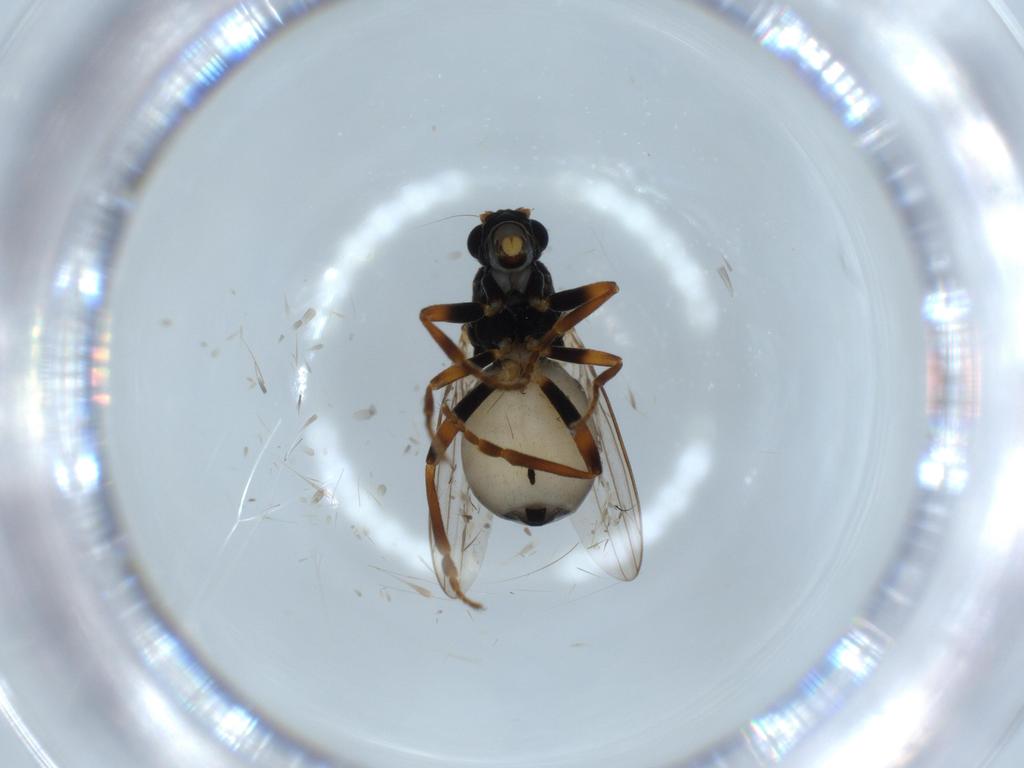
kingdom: Animalia
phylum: Arthropoda
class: Insecta
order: Diptera
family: Sphaeroceridae
